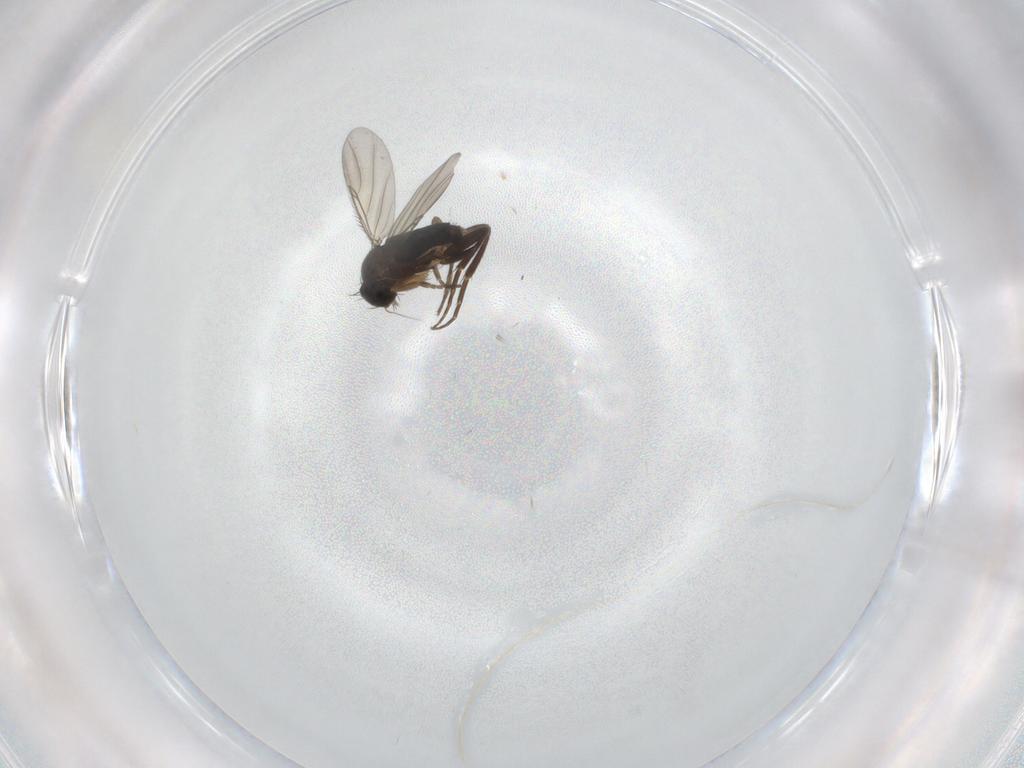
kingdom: Animalia
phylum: Arthropoda
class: Insecta
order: Diptera
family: Phoridae
